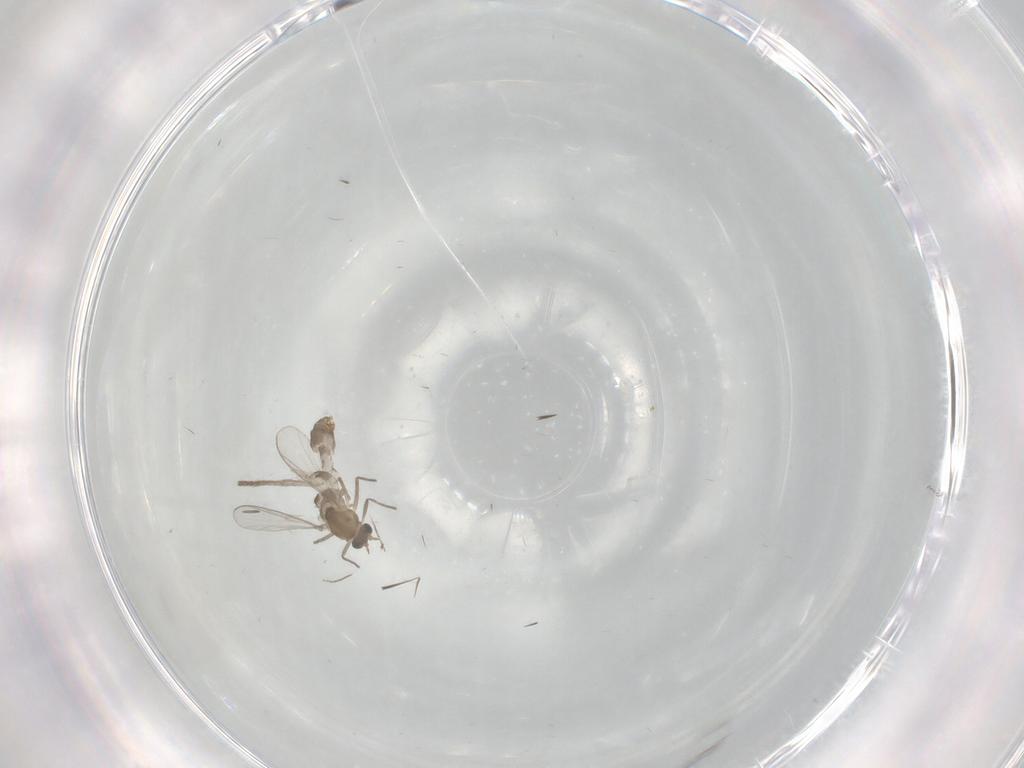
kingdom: Animalia
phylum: Arthropoda
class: Insecta
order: Diptera
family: Chironomidae
